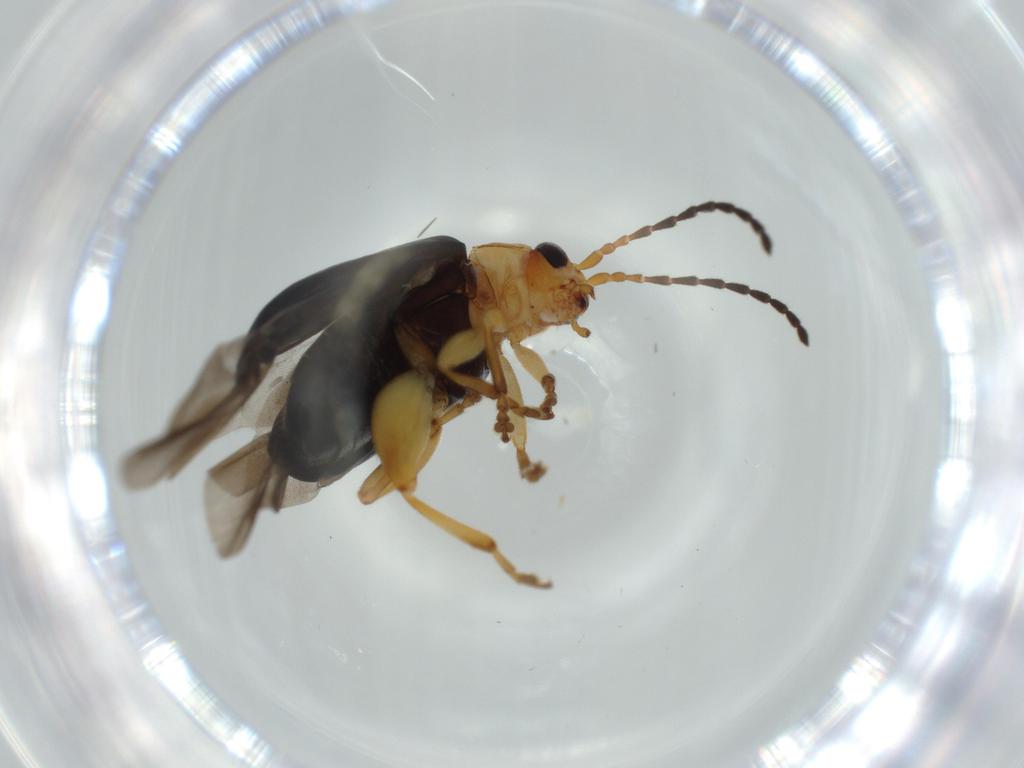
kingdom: Animalia
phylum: Arthropoda
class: Insecta
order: Coleoptera
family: Chrysomelidae
